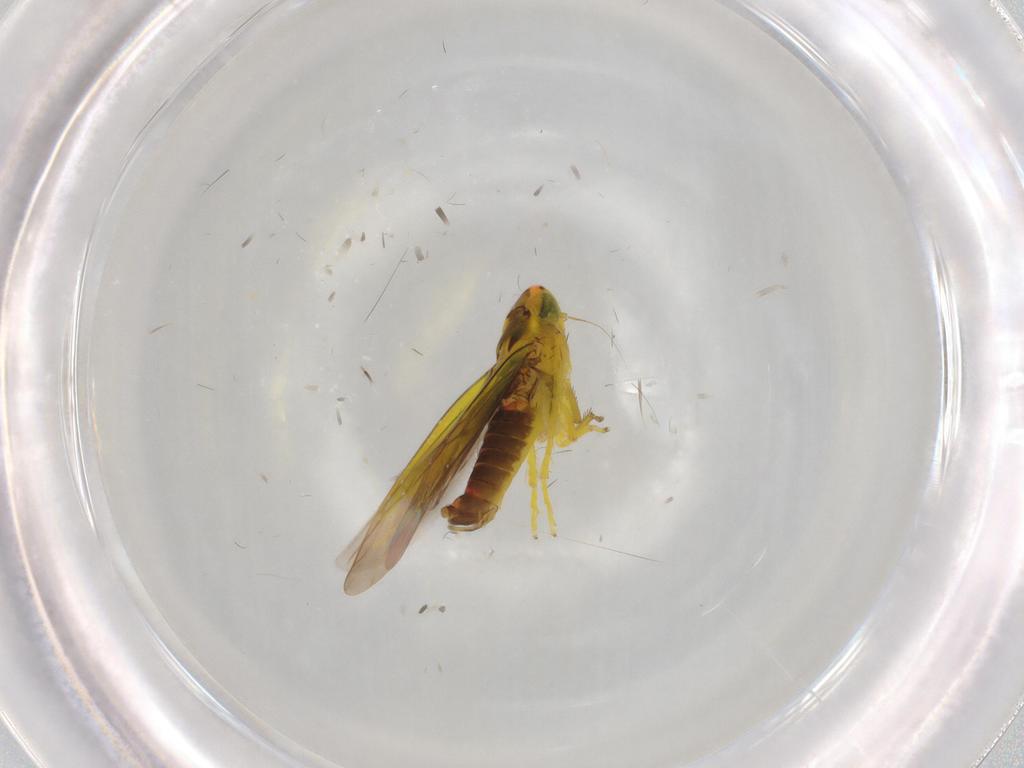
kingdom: Animalia
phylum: Arthropoda
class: Insecta
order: Hemiptera
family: Cicadellidae
